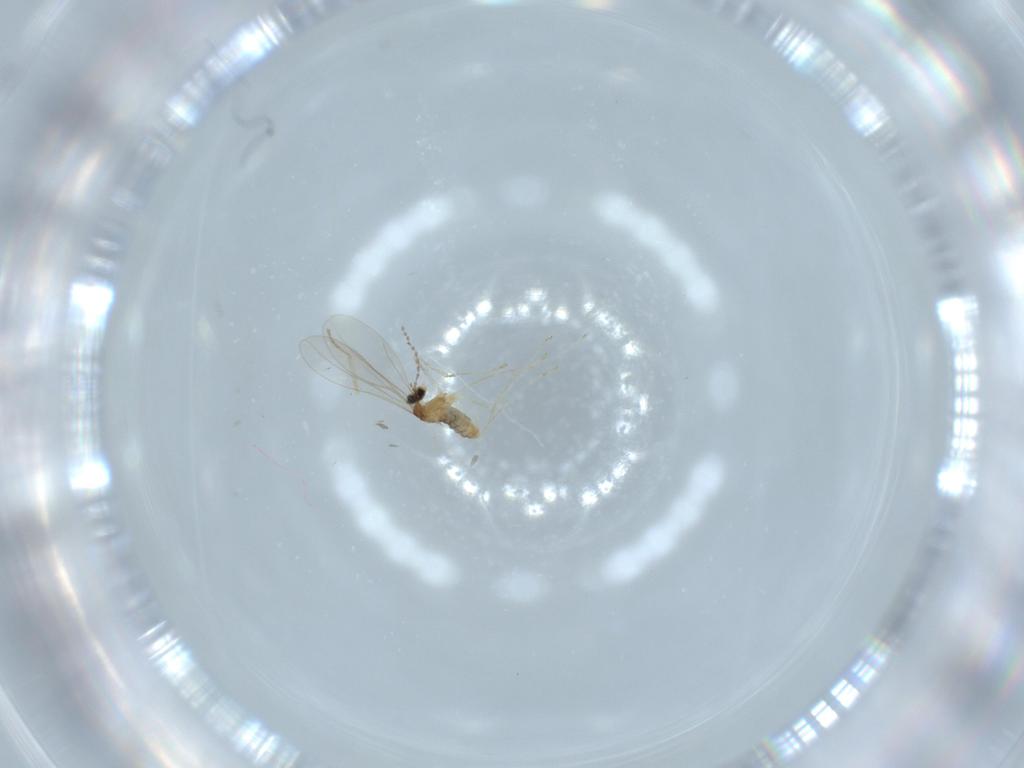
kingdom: Animalia
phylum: Arthropoda
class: Insecta
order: Diptera
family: Cecidomyiidae
